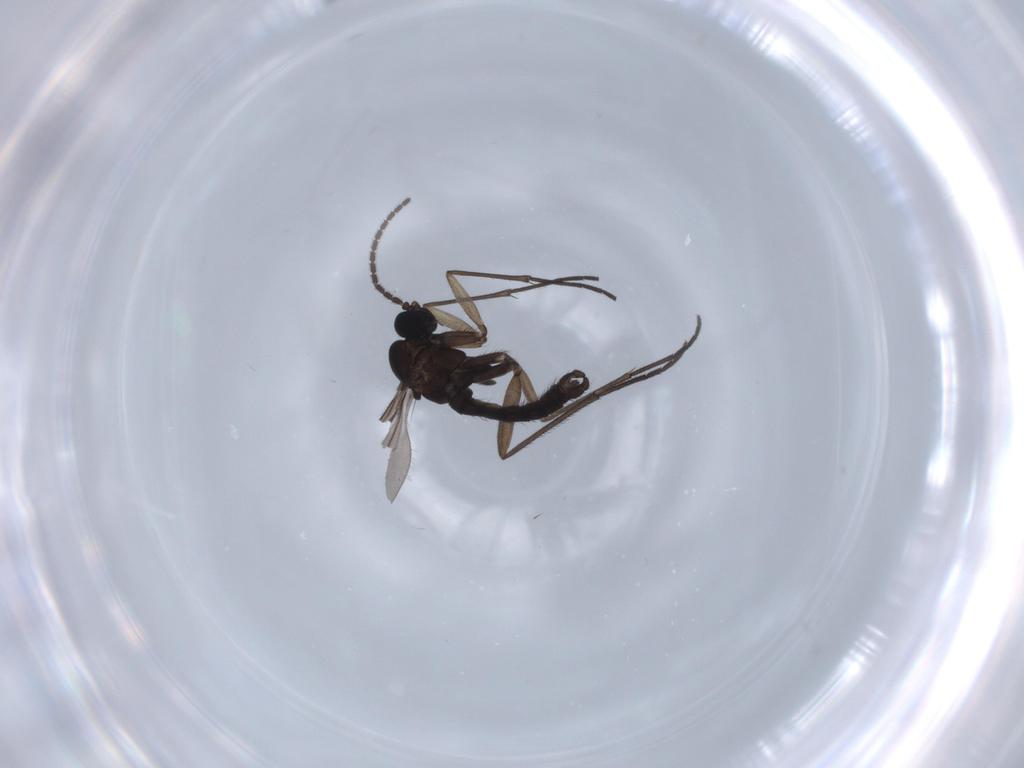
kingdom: Animalia
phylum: Arthropoda
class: Insecta
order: Diptera
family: Sciaridae
